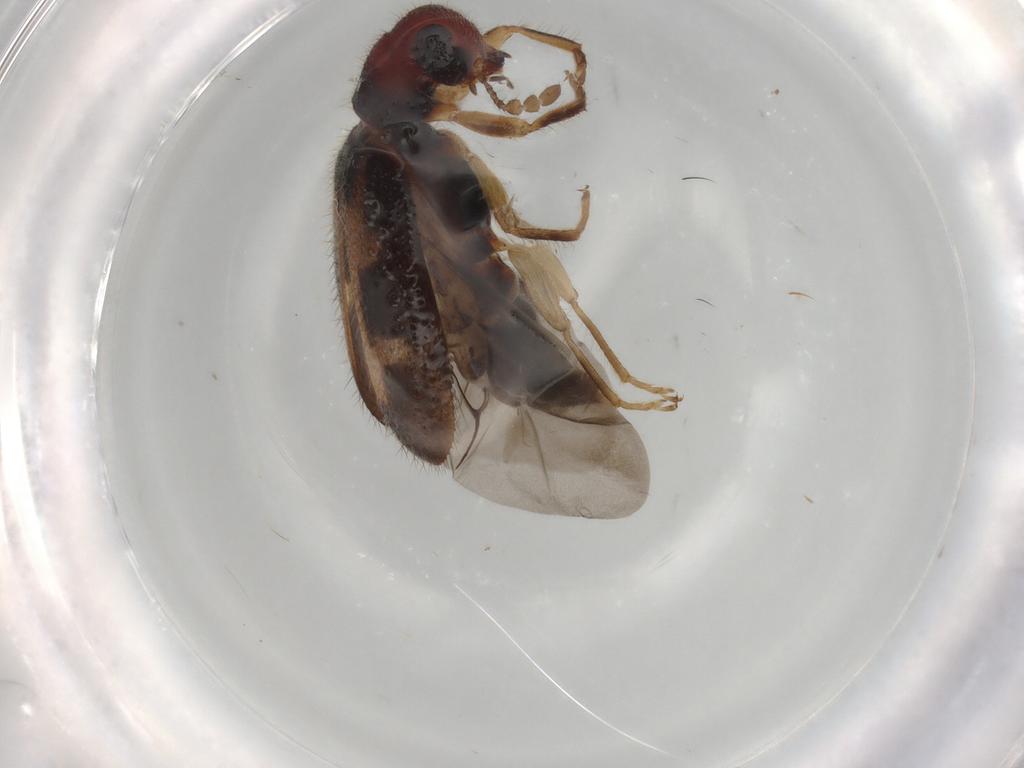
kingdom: Animalia
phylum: Arthropoda
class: Insecta
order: Coleoptera
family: Cleridae
